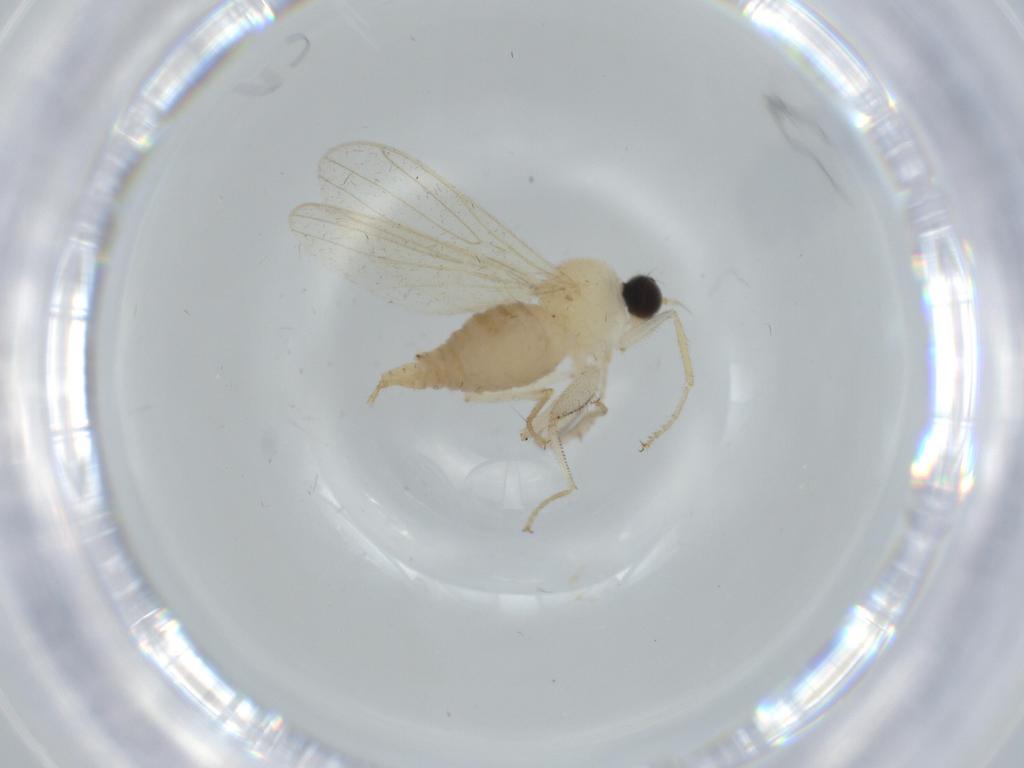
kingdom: Animalia
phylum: Arthropoda
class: Insecta
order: Diptera
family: Hybotidae
